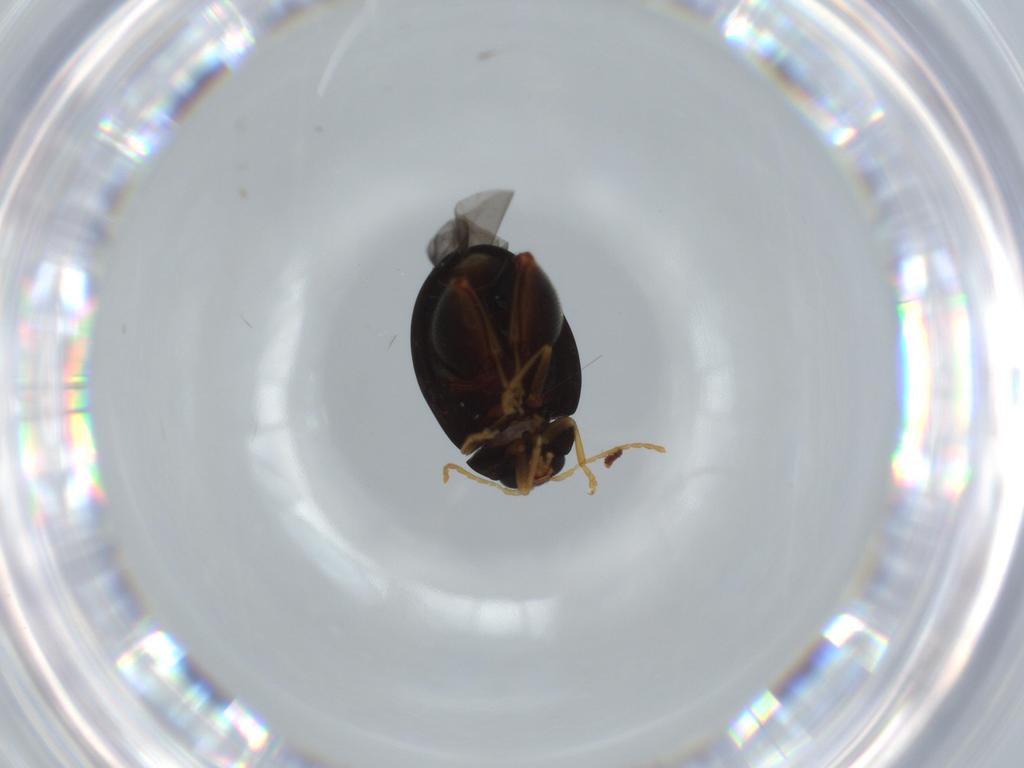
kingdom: Animalia
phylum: Arthropoda
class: Insecta
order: Coleoptera
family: Chrysomelidae
